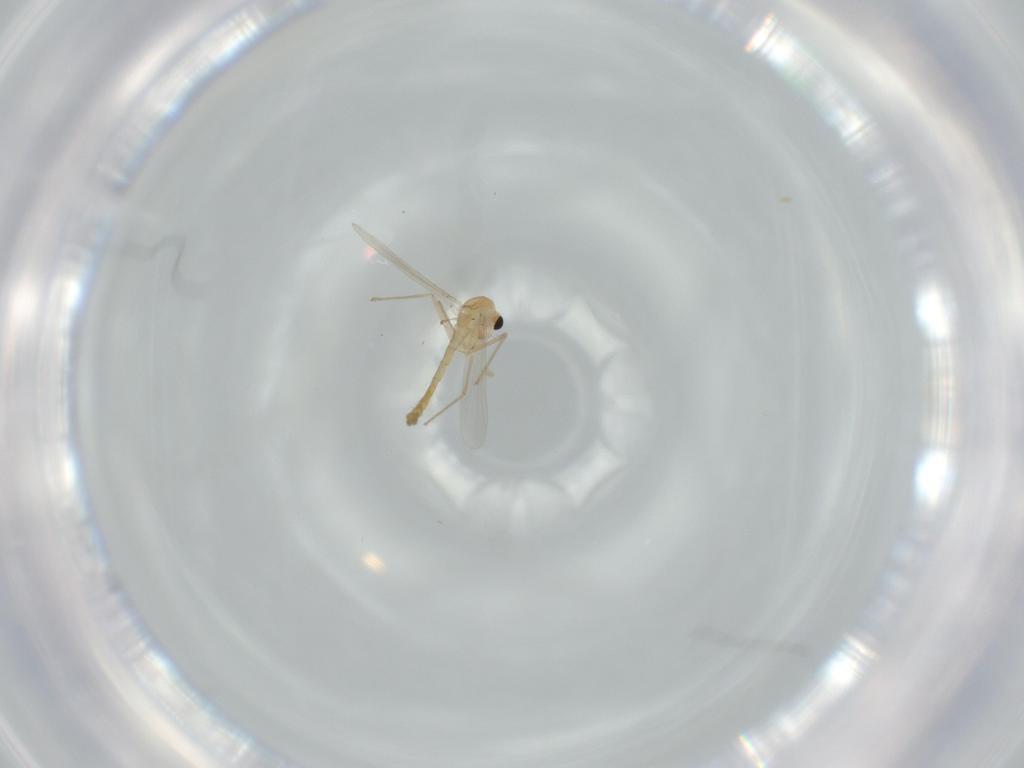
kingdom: Animalia
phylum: Arthropoda
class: Insecta
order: Diptera
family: Chironomidae
